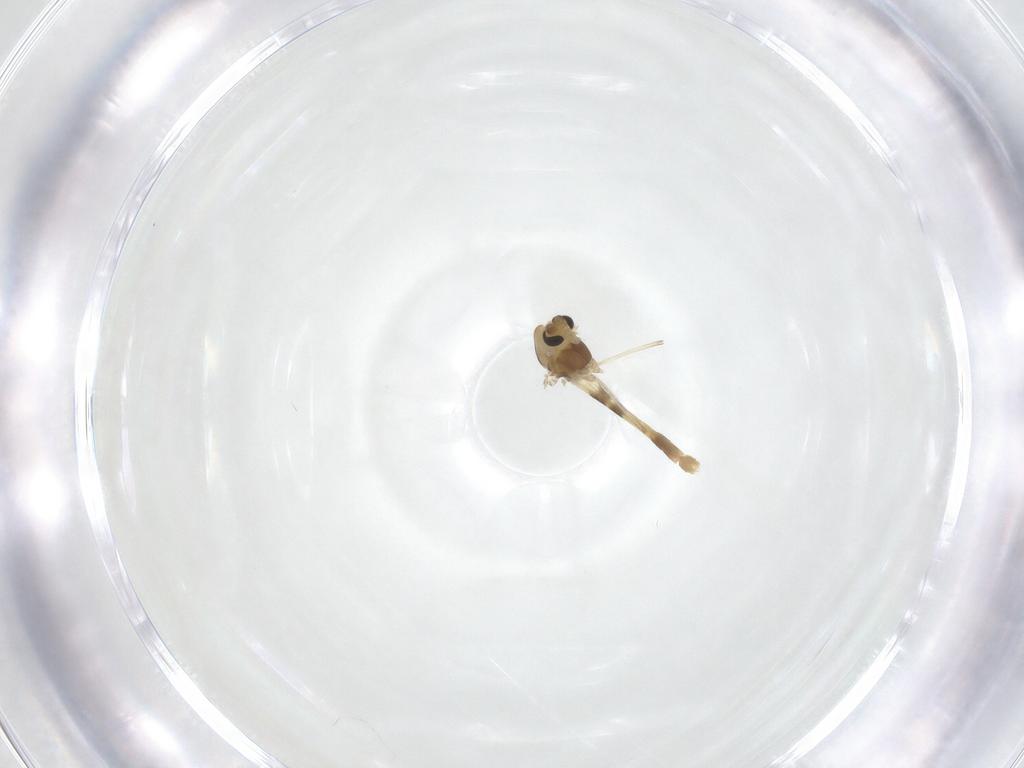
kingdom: Animalia
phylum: Arthropoda
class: Insecta
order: Diptera
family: Chironomidae
